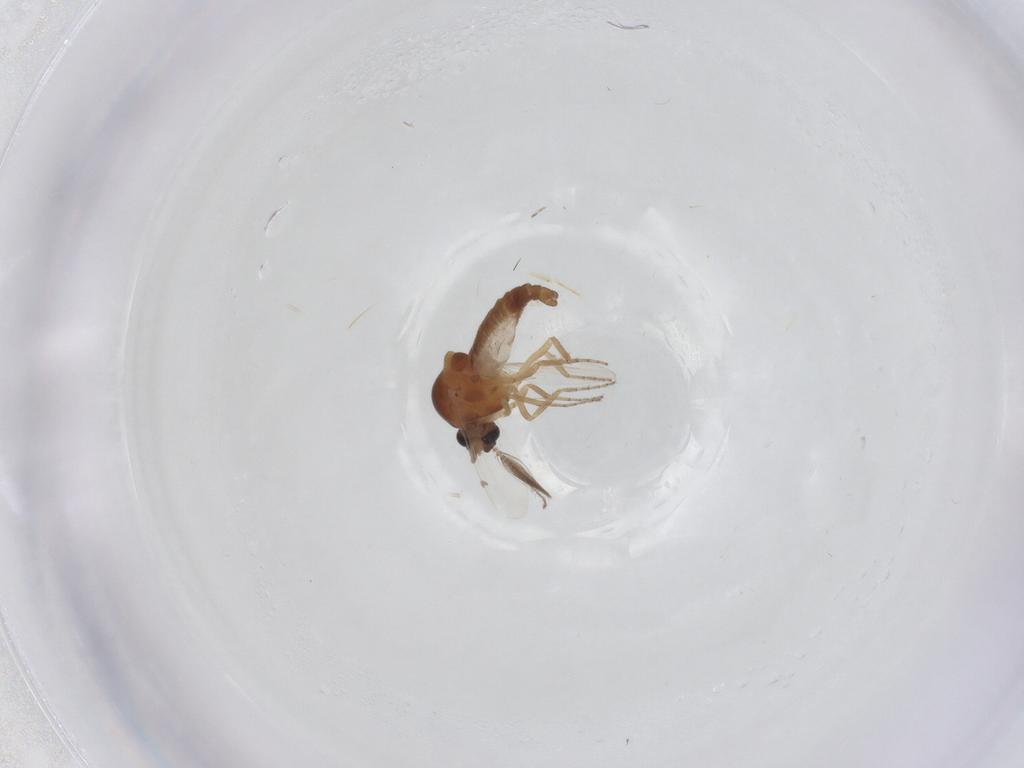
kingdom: Animalia
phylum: Arthropoda
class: Insecta
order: Diptera
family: Ceratopogonidae
